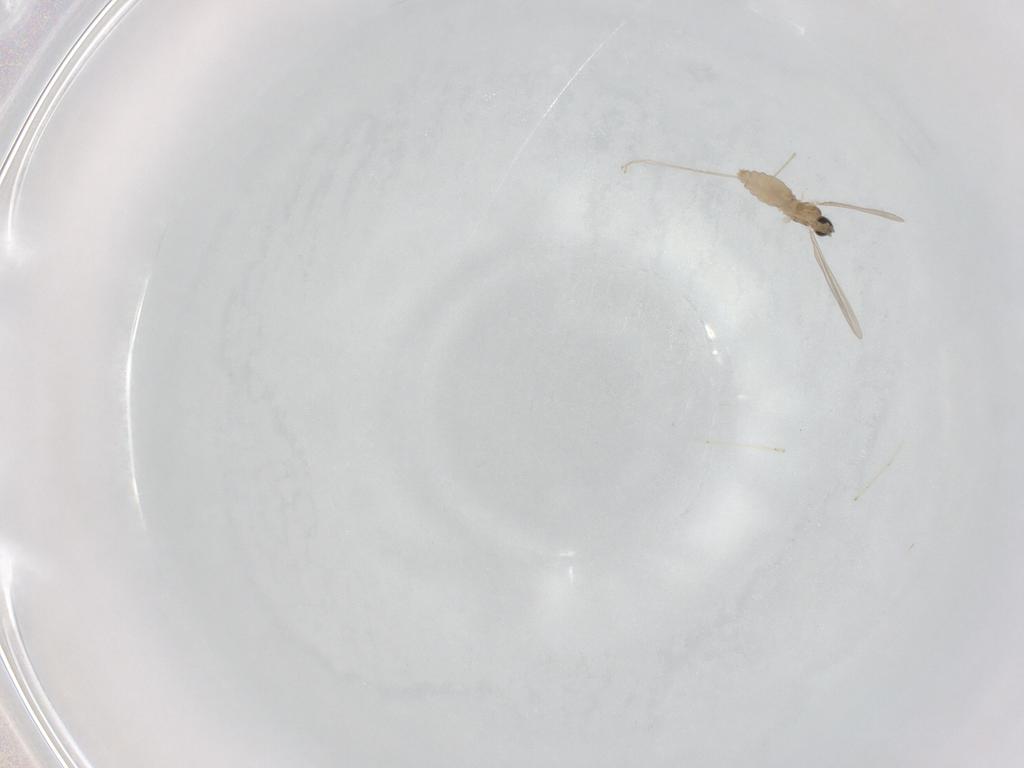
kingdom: Animalia
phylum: Arthropoda
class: Insecta
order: Diptera
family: Cecidomyiidae
